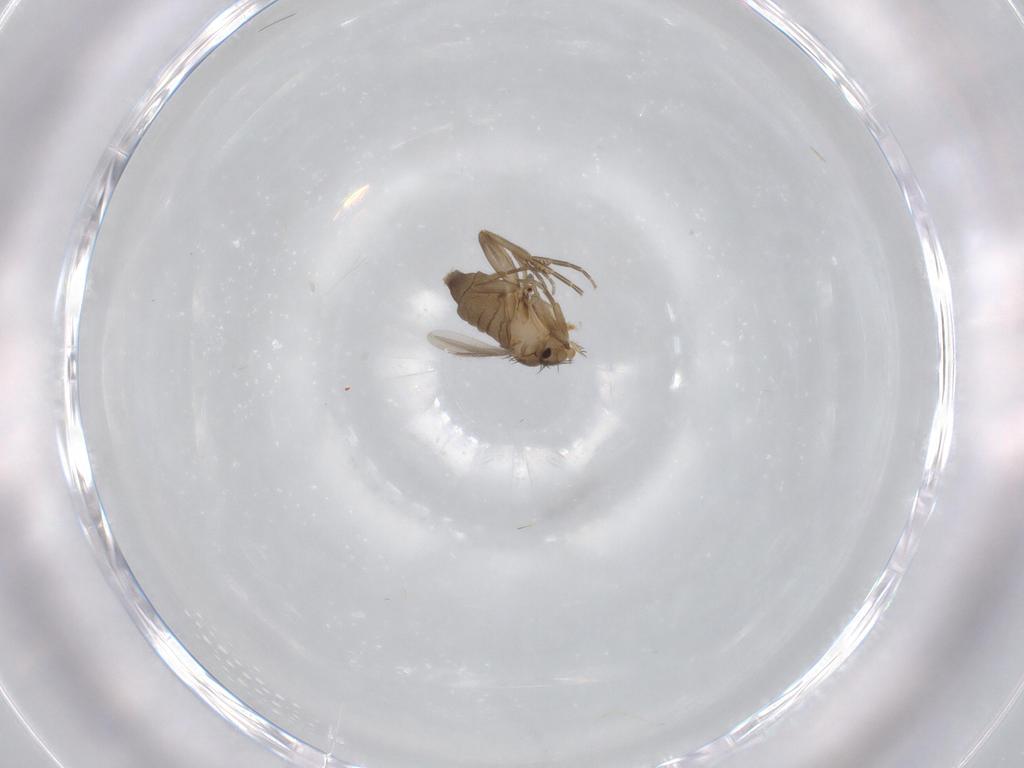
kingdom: Animalia
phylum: Arthropoda
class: Insecta
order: Diptera
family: Phoridae
